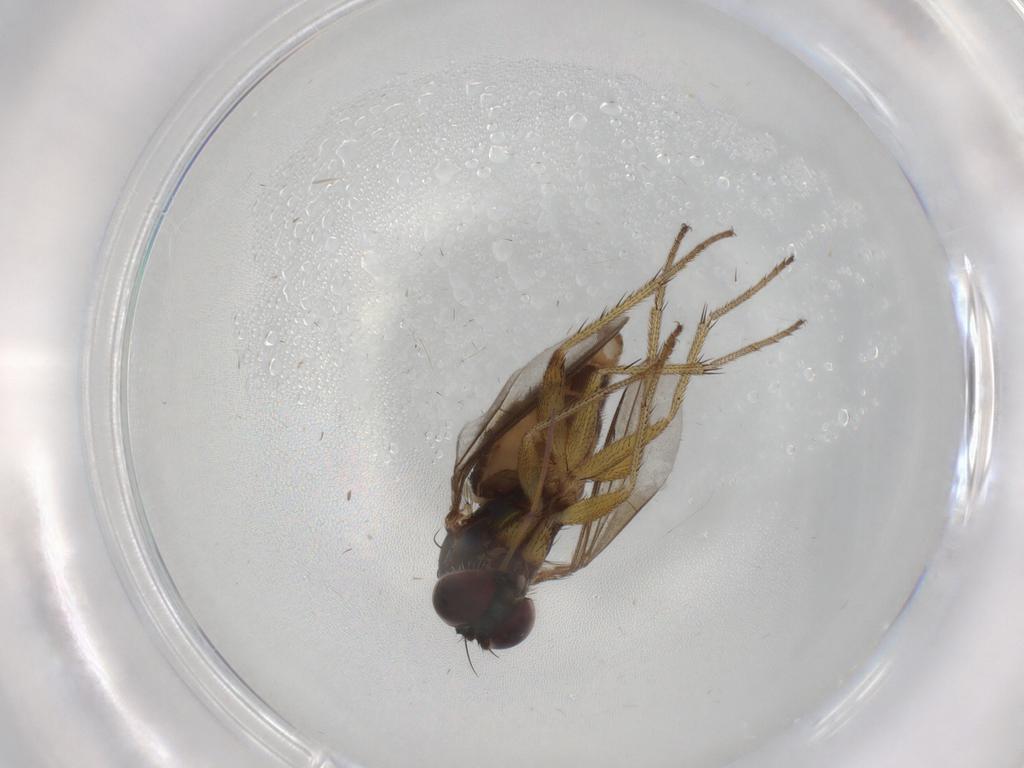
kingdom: Animalia
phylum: Arthropoda
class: Insecta
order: Diptera
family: Dolichopodidae
